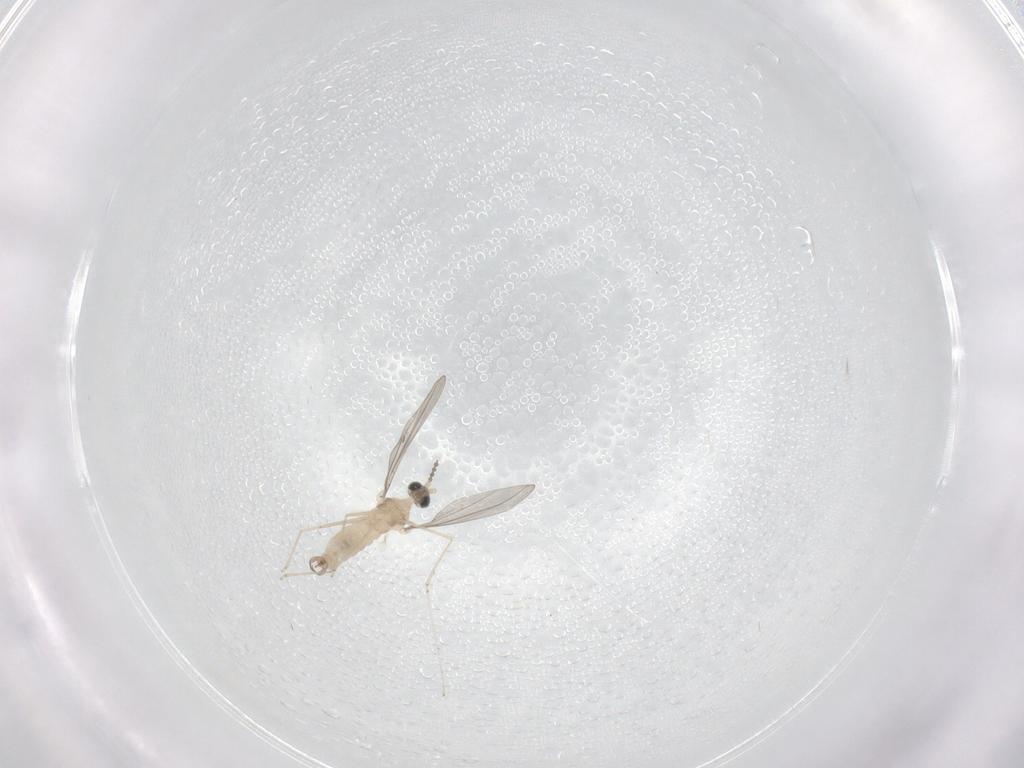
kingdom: Animalia
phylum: Arthropoda
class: Insecta
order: Diptera
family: Cecidomyiidae
